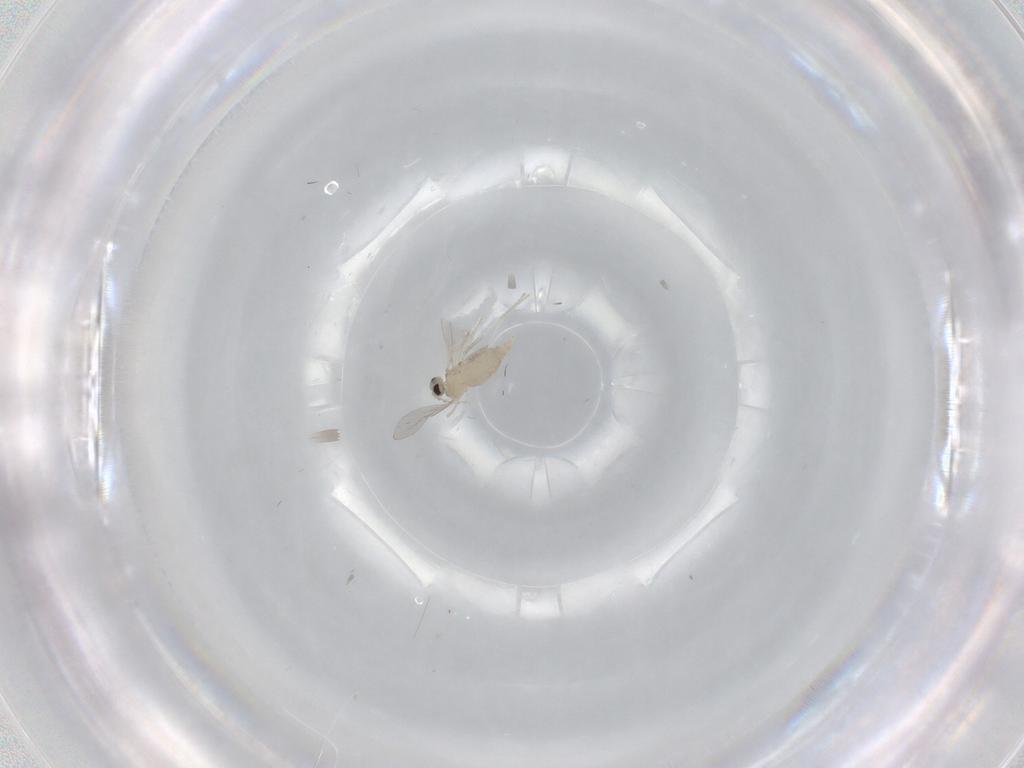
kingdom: Animalia
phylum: Arthropoda
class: Insecta
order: Diptera
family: Cecidomyiidae
